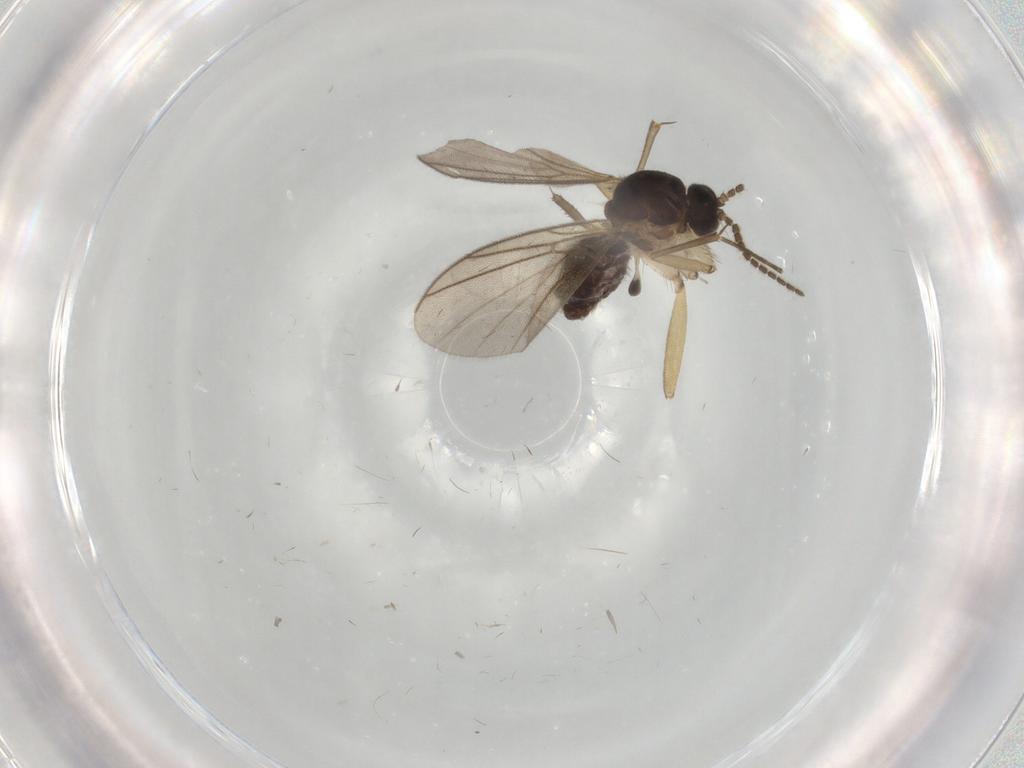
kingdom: Animalia
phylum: Arthropoda
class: Insecta
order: Diptera
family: Mycetophilidae
